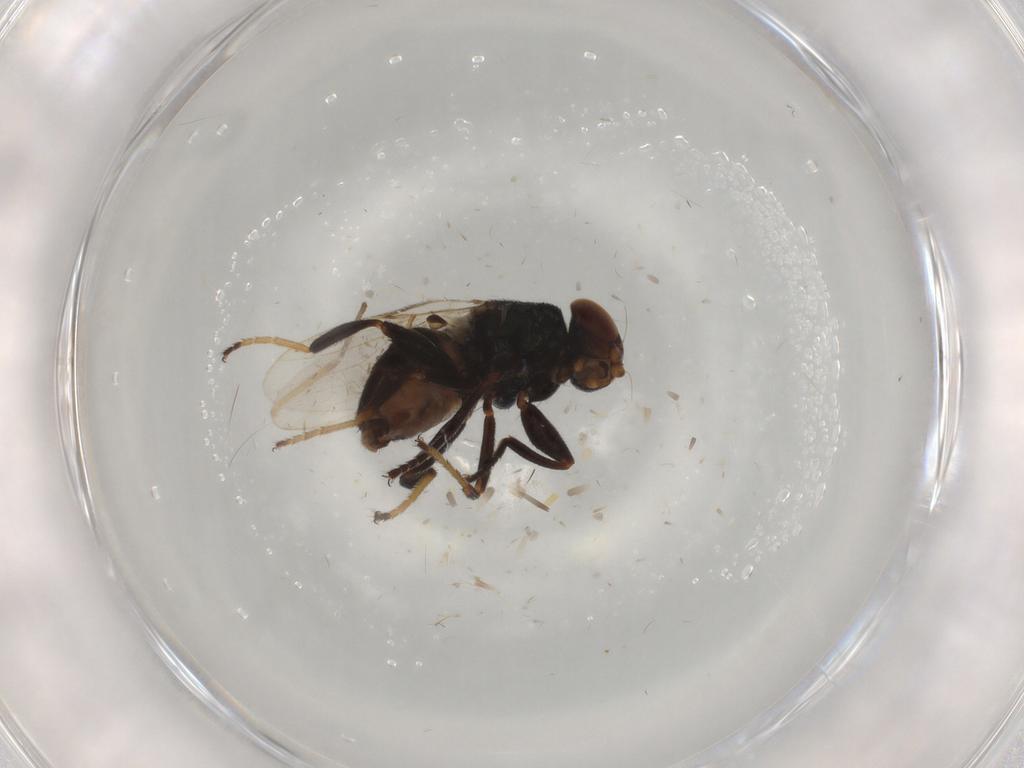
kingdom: Animalia
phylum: Arthropoda
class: Insecta
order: Diptera
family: Chloropidae
